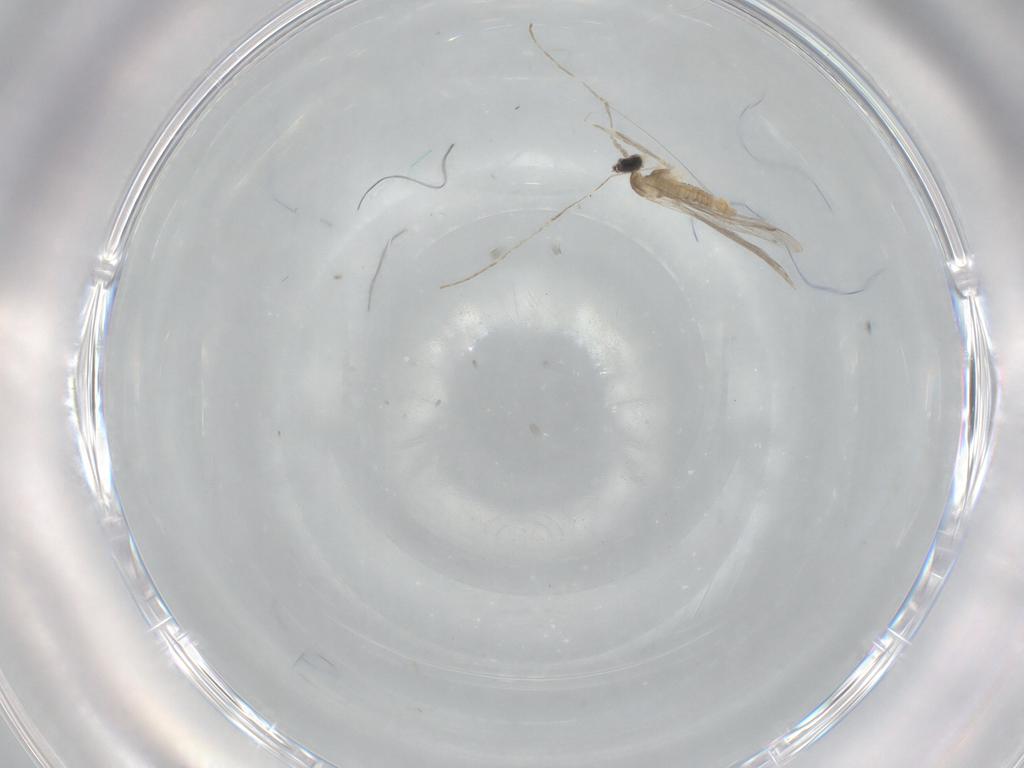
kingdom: Animalia
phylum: Arthropoda
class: Insecta
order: Diptera
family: Cecidomyiidae
